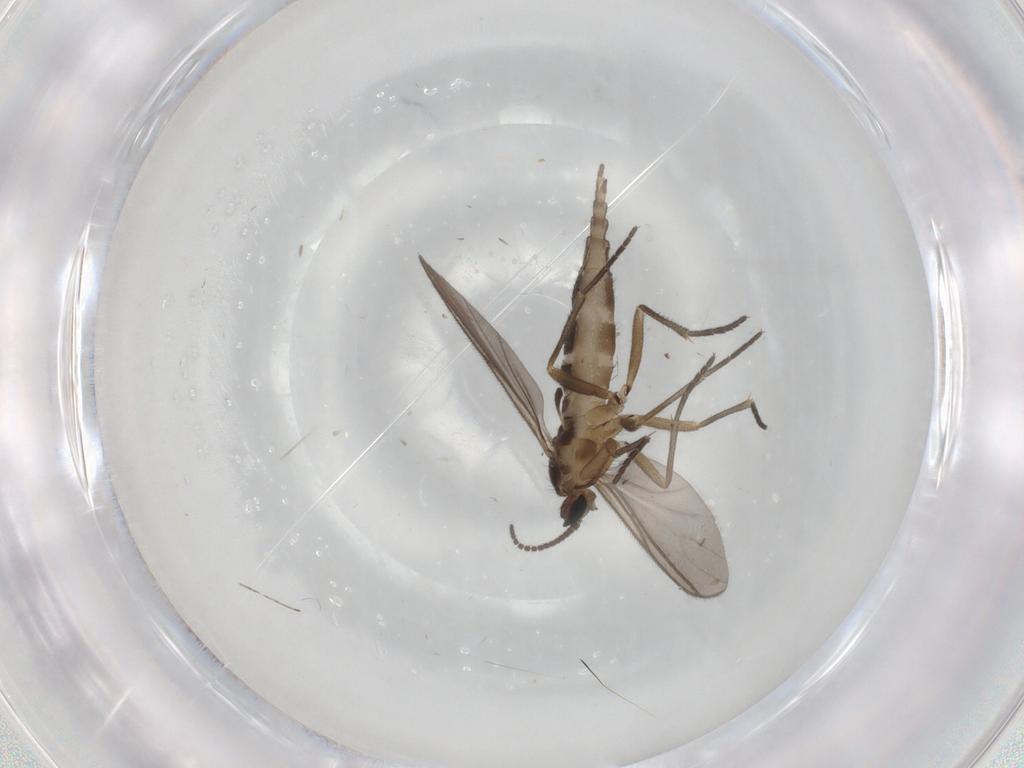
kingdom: Animalia
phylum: Arthropoda
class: Insecta
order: Diptera
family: Sciaridae
